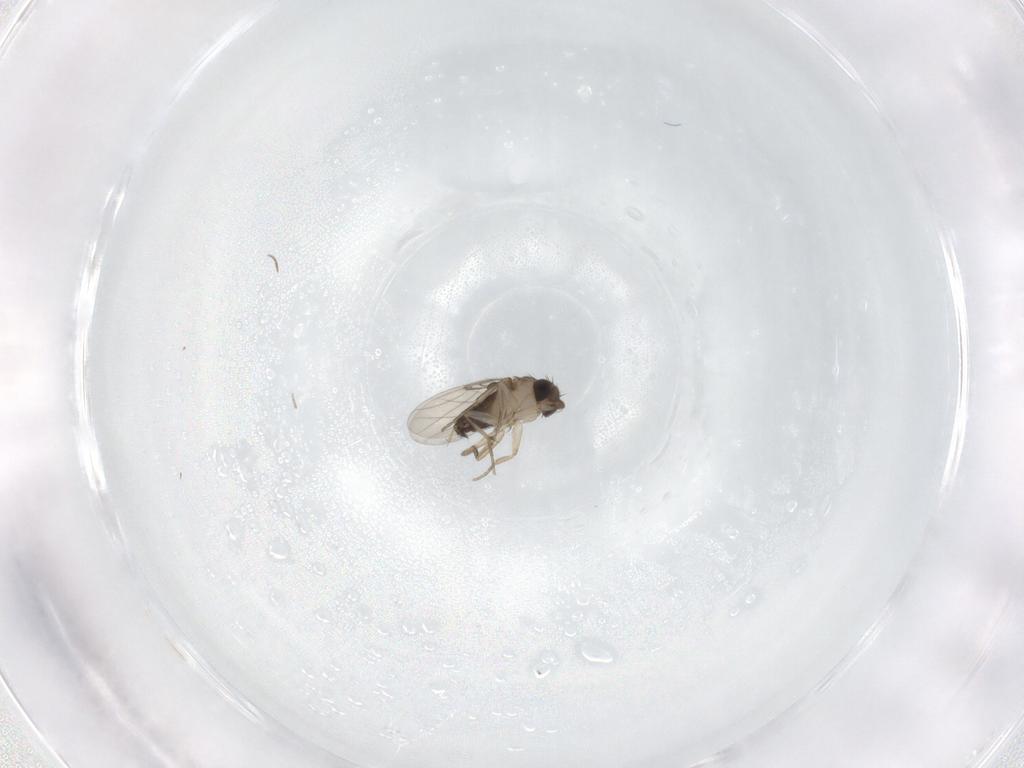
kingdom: Animalia
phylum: Arthropoda
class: Insecta
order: Diptera
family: Phoridae
